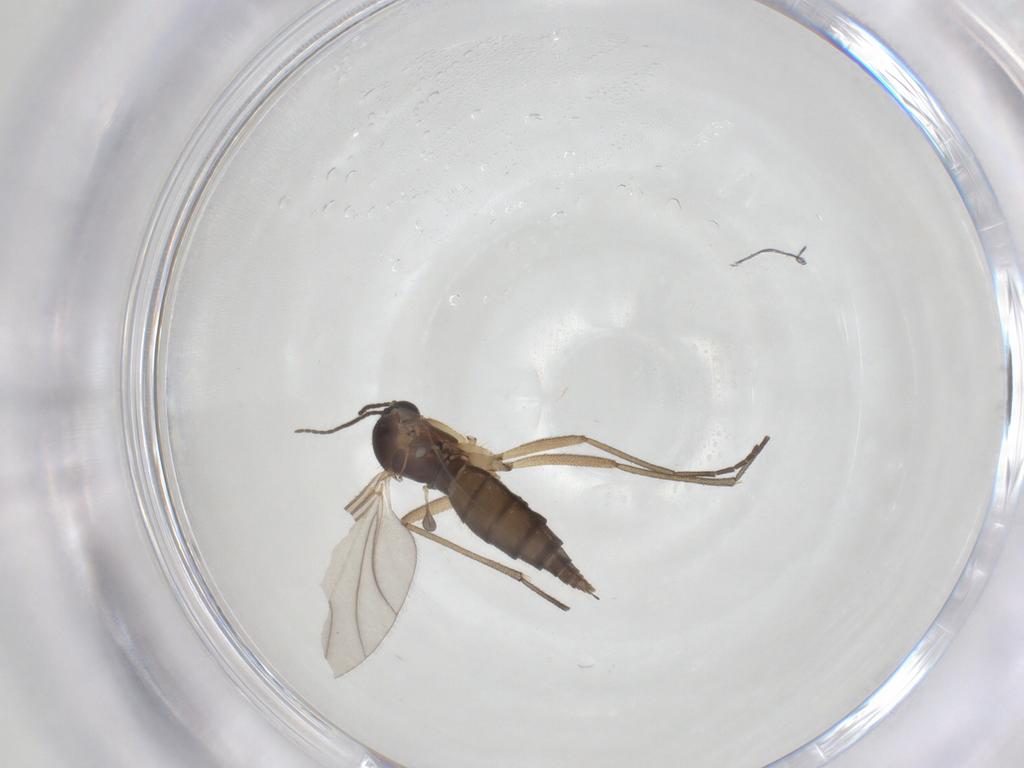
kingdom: Animalia
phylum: Arthropoda
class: Insecta
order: Diptera
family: Sciaridae
